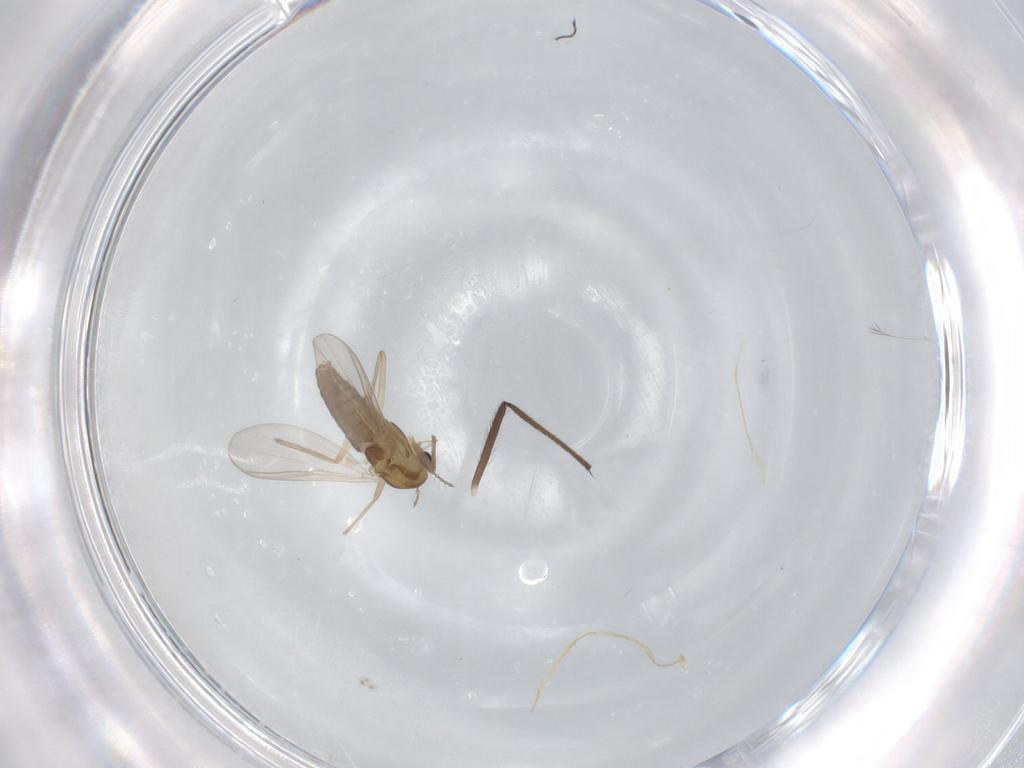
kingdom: Animalia
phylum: Arthropoda
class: Insecta
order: Diptera
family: Chironomidae
